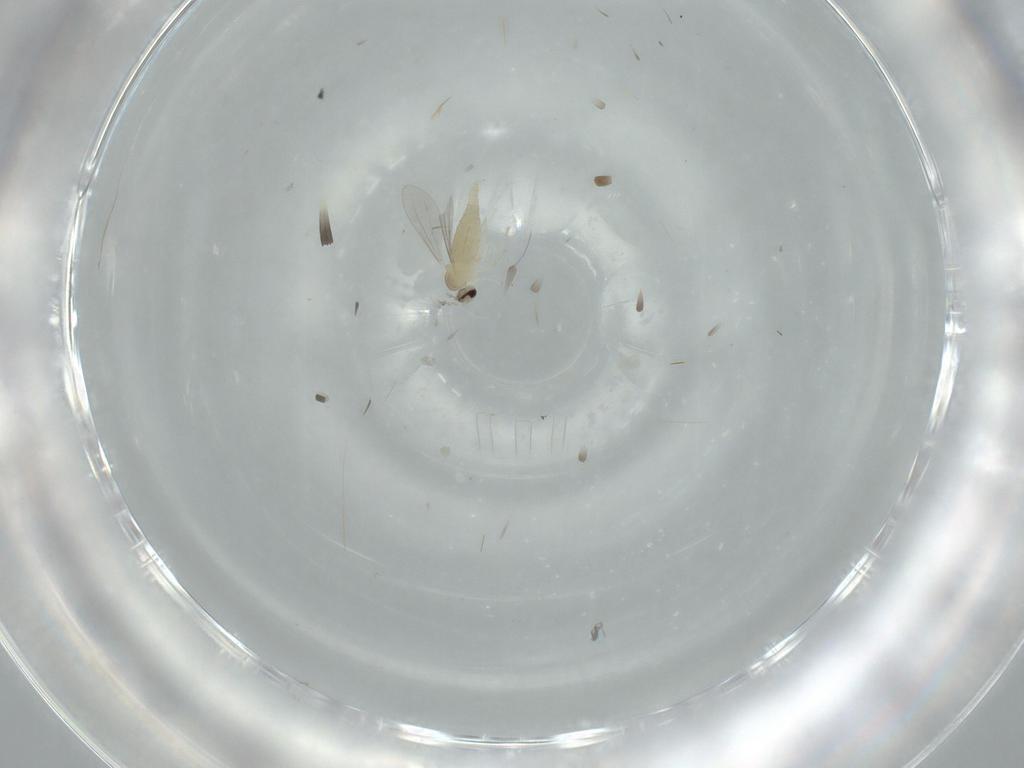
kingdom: Animalia
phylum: Arthropoda
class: Insecta
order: Diptera
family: Cecidomyiidae
